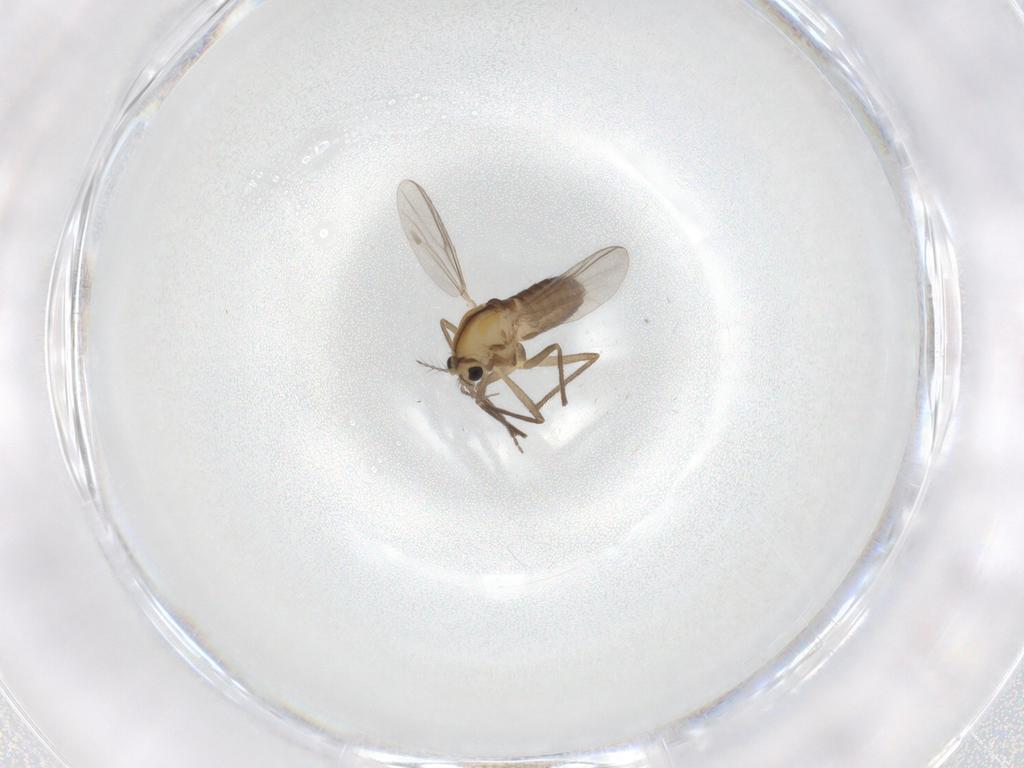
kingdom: Animalia
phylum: Arthropoda
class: Insecta
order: Diptera
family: Chironomidae
